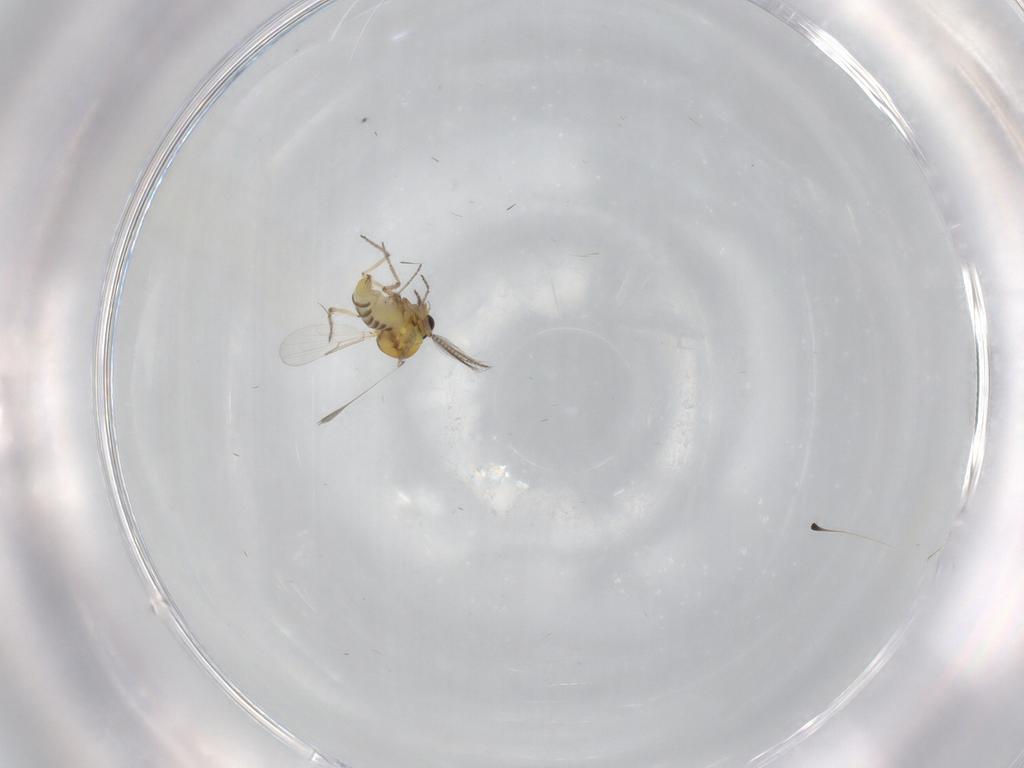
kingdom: Animalia
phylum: Arthropoda
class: Insecta
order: Diptera
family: Sciaridae
